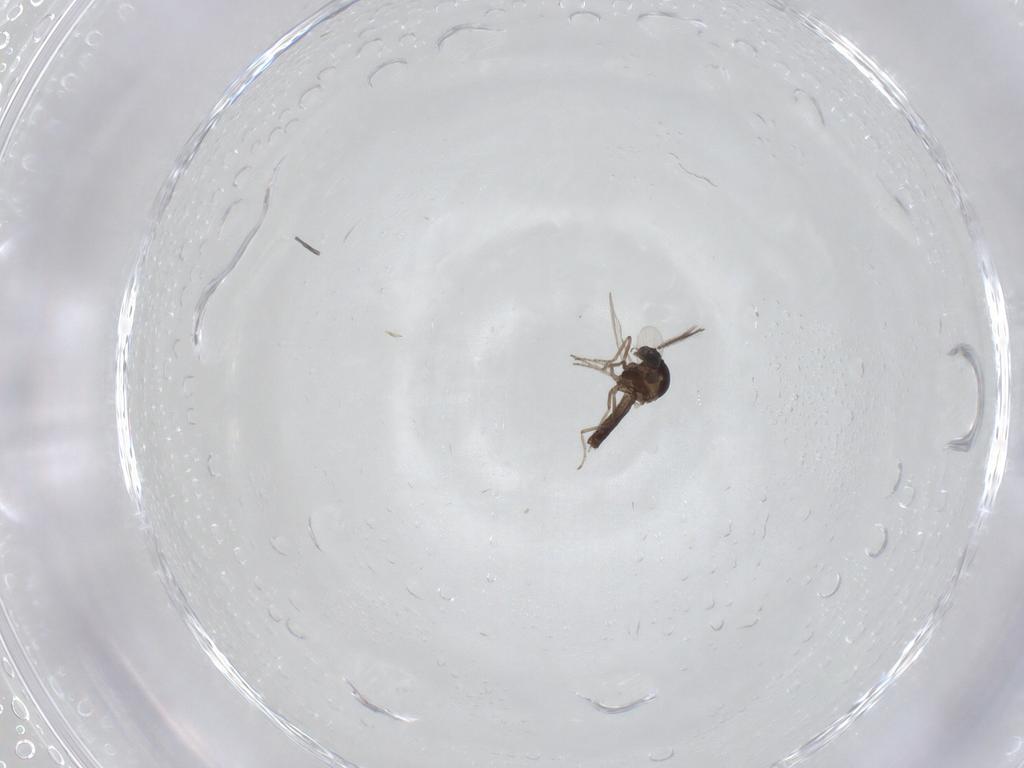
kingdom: Animalia
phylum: Arthropoda
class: Insecta
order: Diptera
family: Ceratopogonidae
